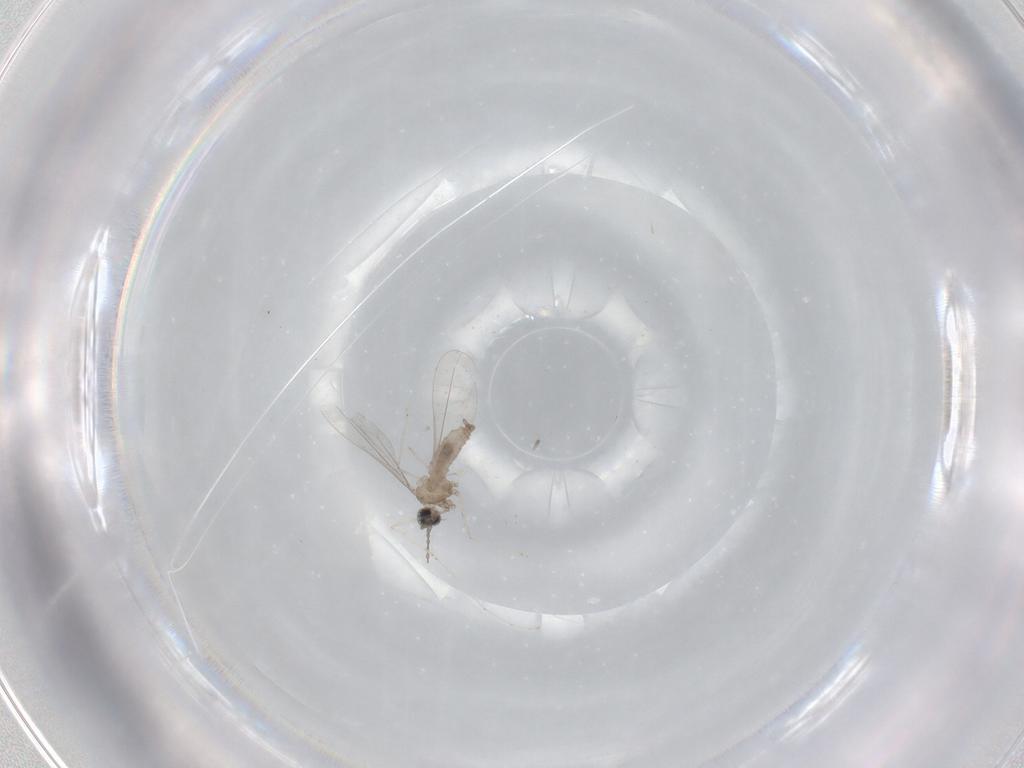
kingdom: Animalia
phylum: Arthropoda
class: Insecta
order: Diptera
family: Cecidomyiidae
